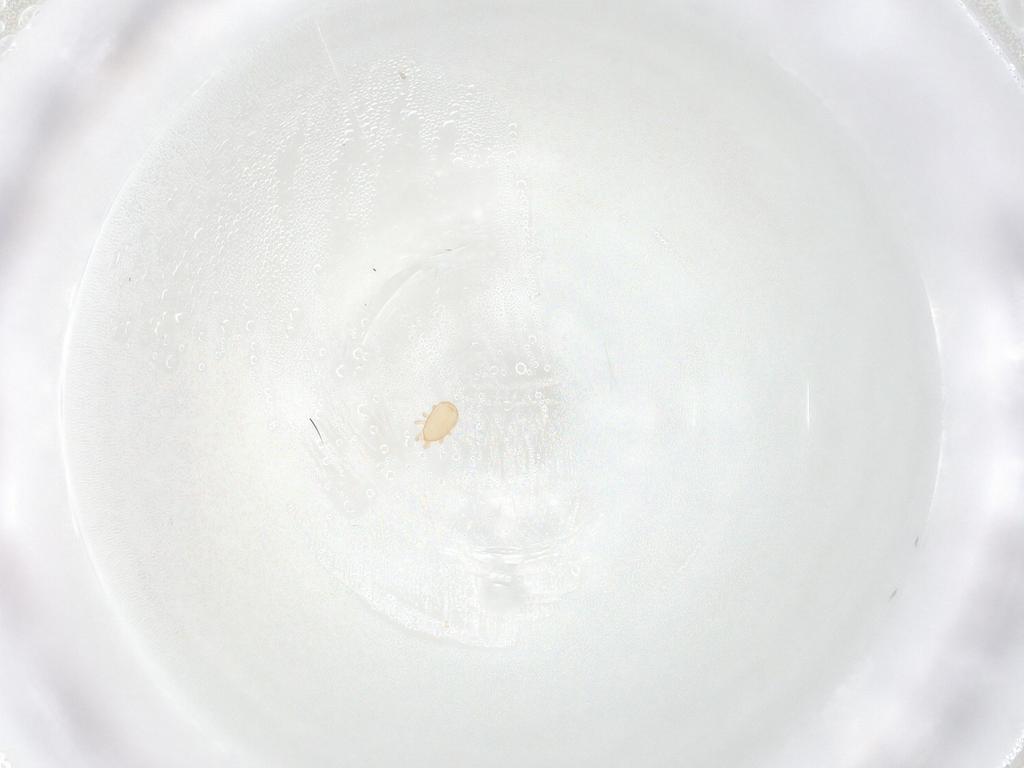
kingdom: Animalia
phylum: Arthropoda
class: Arachnida
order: Mesostigmata
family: Ascidae
